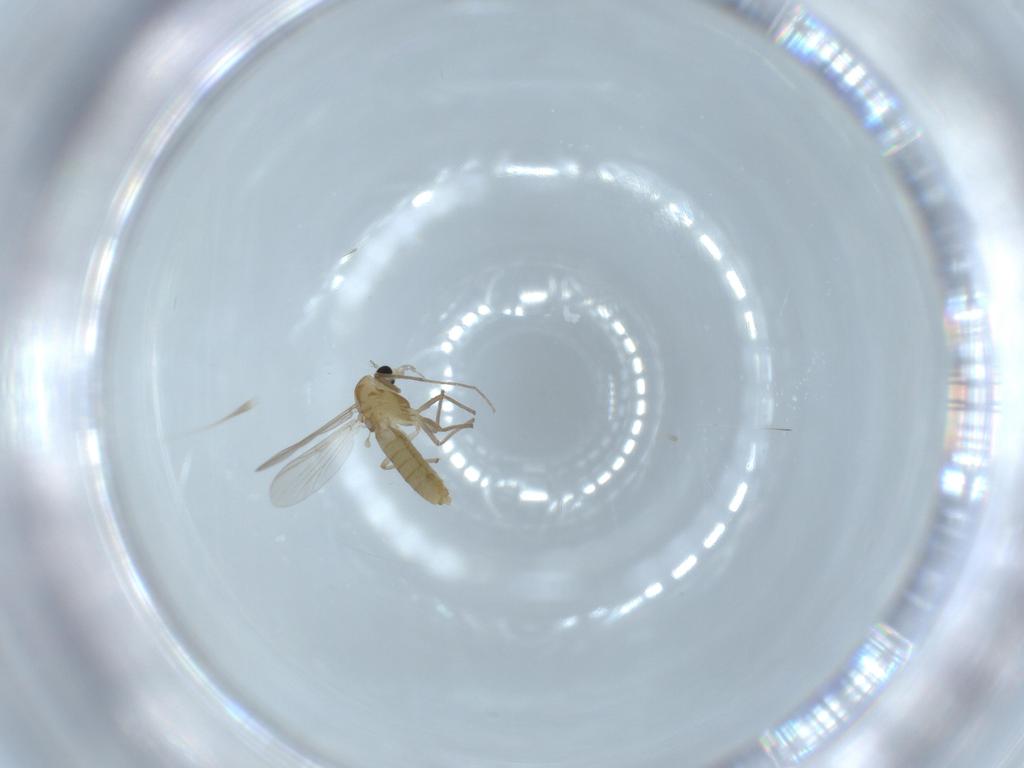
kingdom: Animalia
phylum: Arthropoda
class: Insecta
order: Diptera
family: Chironomidae
